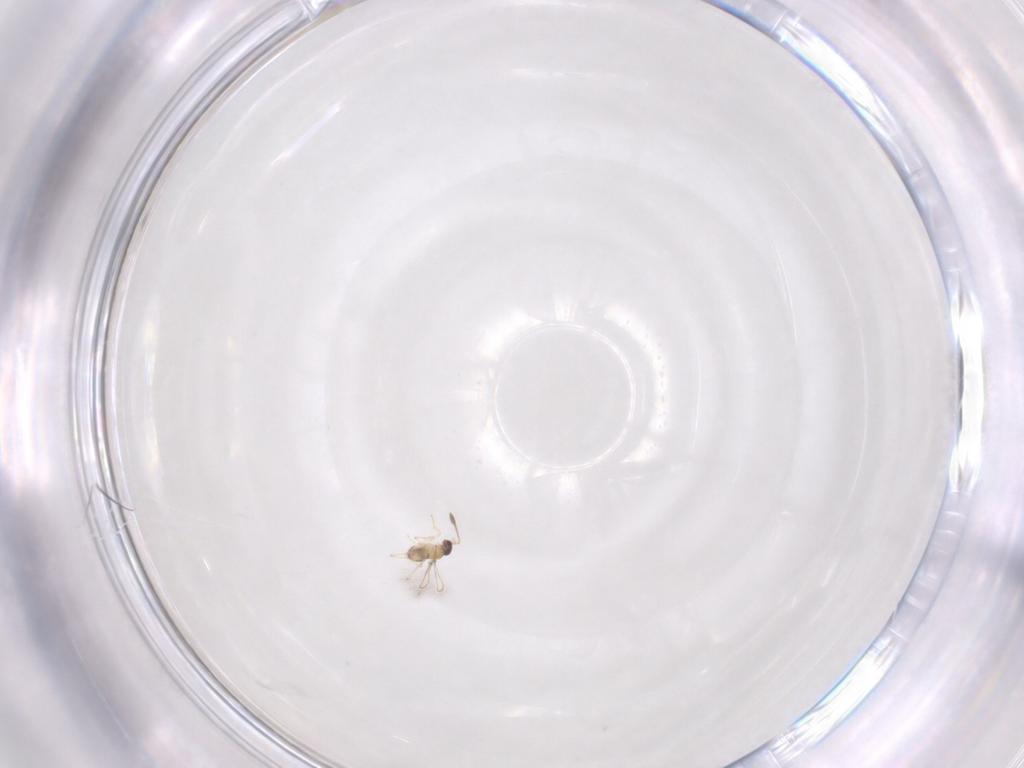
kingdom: Animalia
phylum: Arthropoda
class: Insecta
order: Hymenoptera
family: Mymaridae
